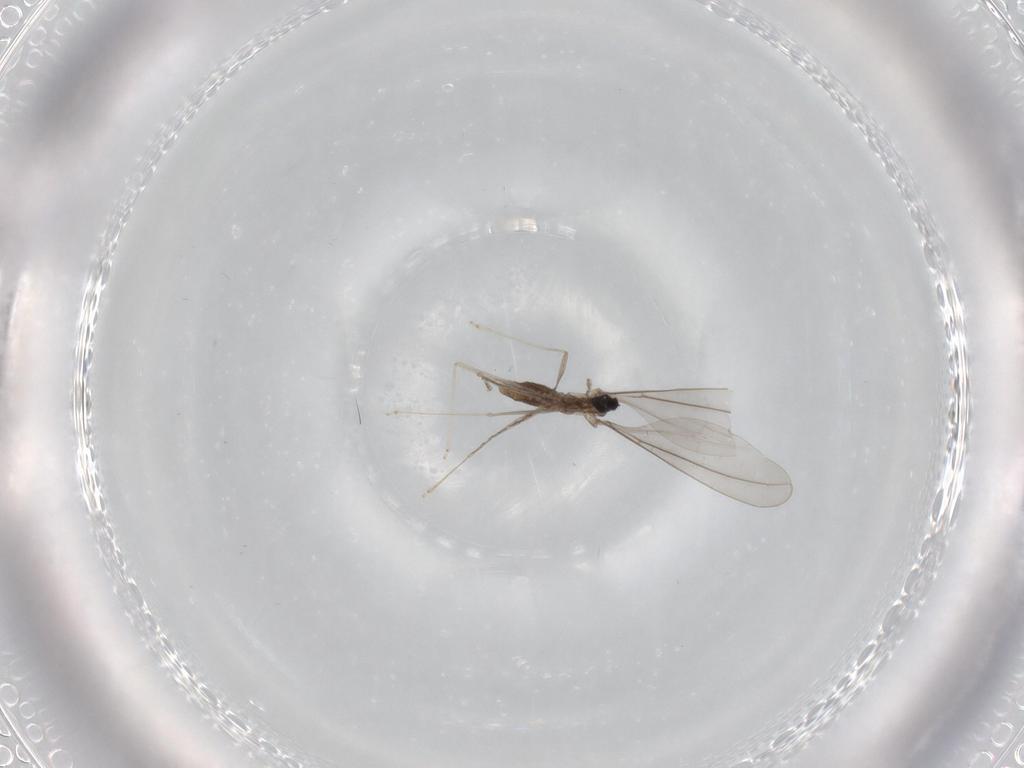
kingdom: Animalia
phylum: Arthropoda
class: Insecta
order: Diptera
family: Cecidomyiidae
